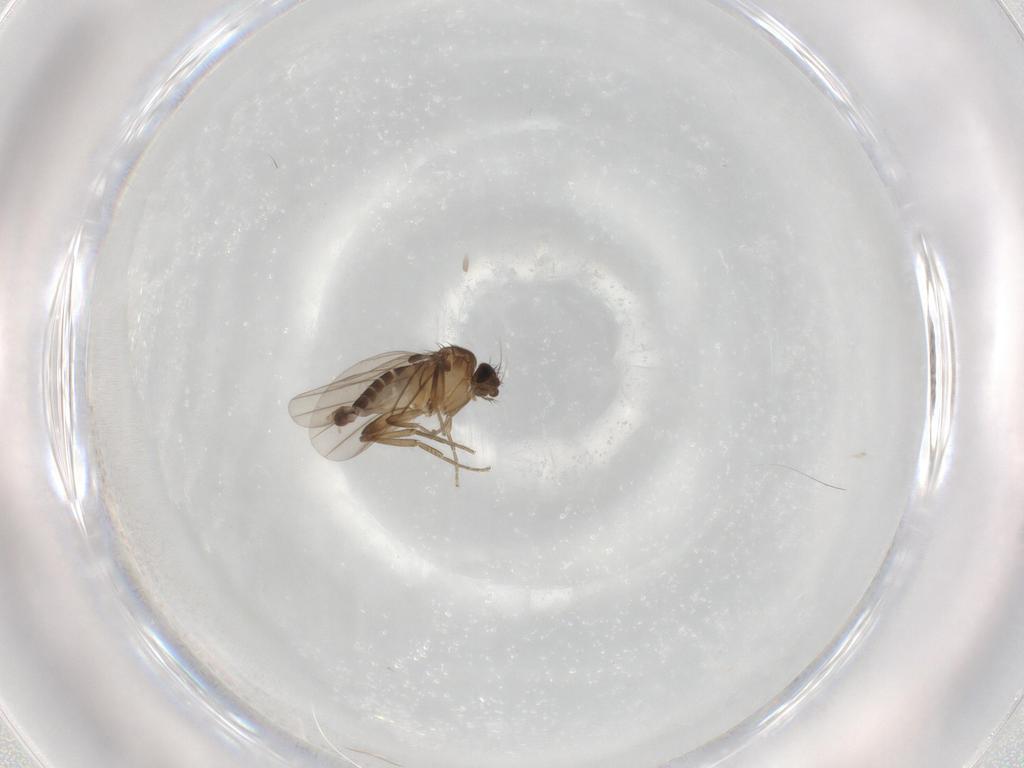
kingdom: Animalia
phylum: Arthropoda
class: Insecta
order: Diptera
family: Phoridae
